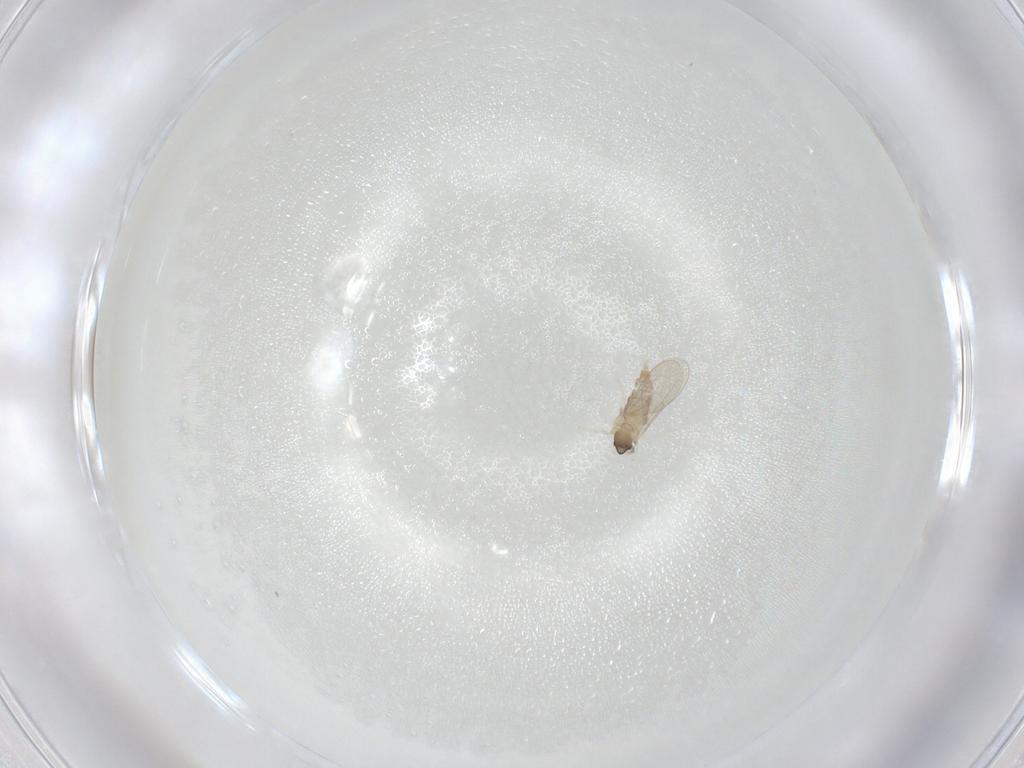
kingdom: Animalia
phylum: Arthropoda
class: Insecta
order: Diptera
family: Cecidomyiidae
